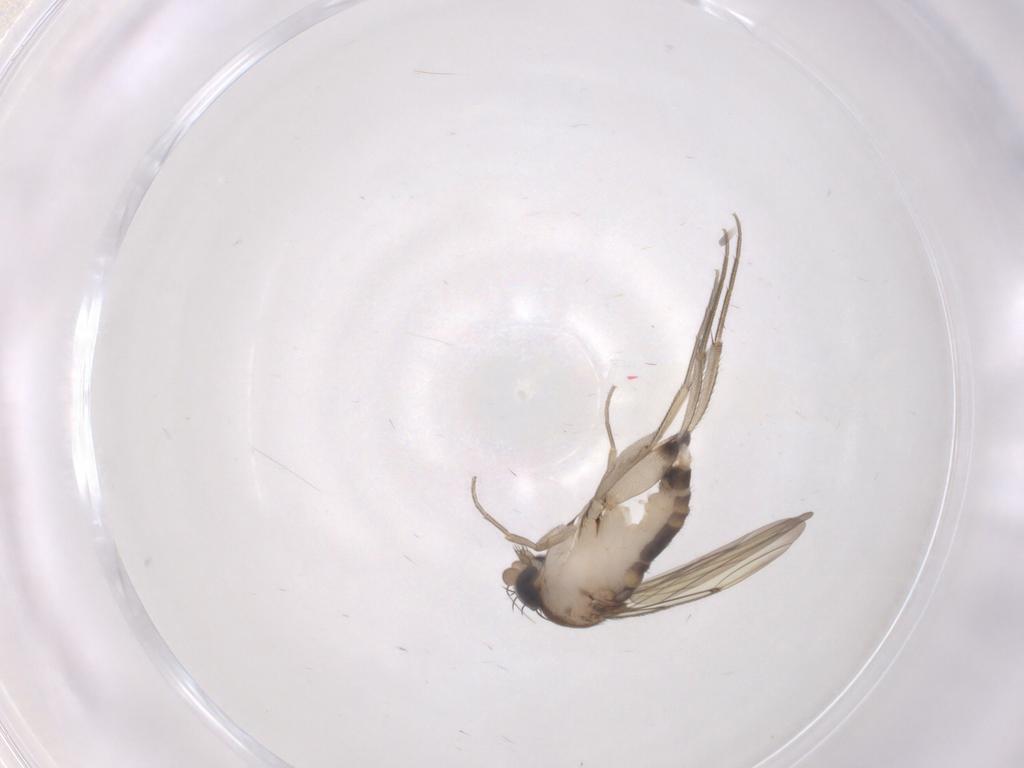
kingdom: Animalia
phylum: Arthropoda
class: Insecta
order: Diptera
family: Phoridae
